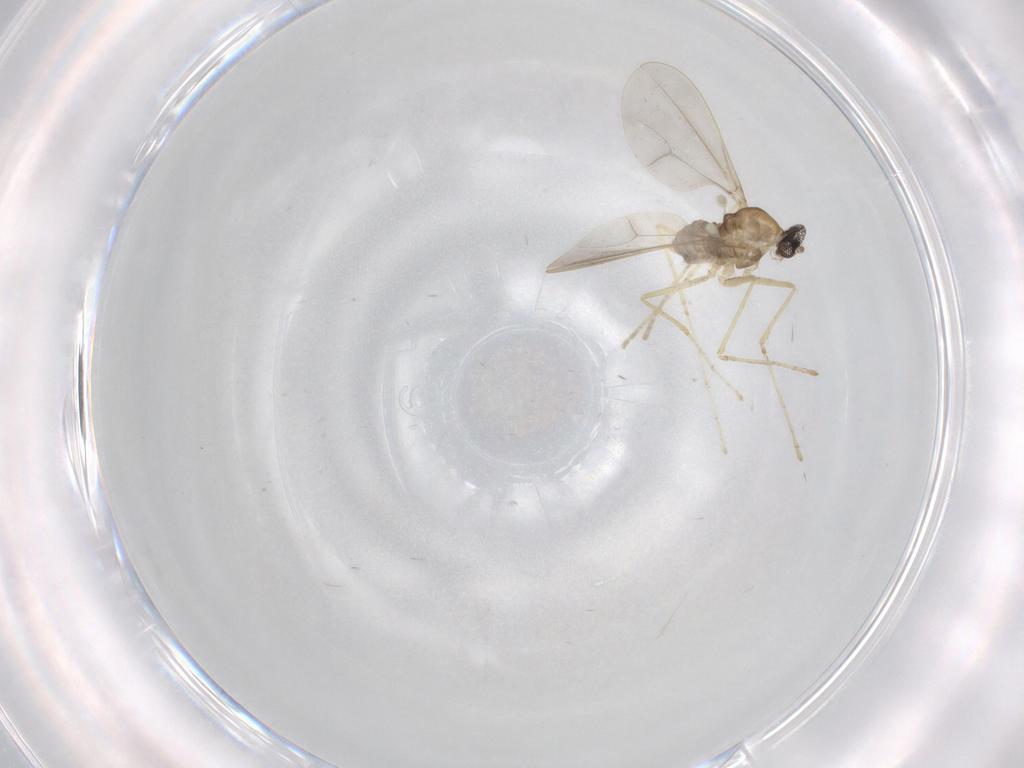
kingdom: Animalia
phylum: Arthropoda
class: Insecta
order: Diptera
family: Cecidomyiidae
